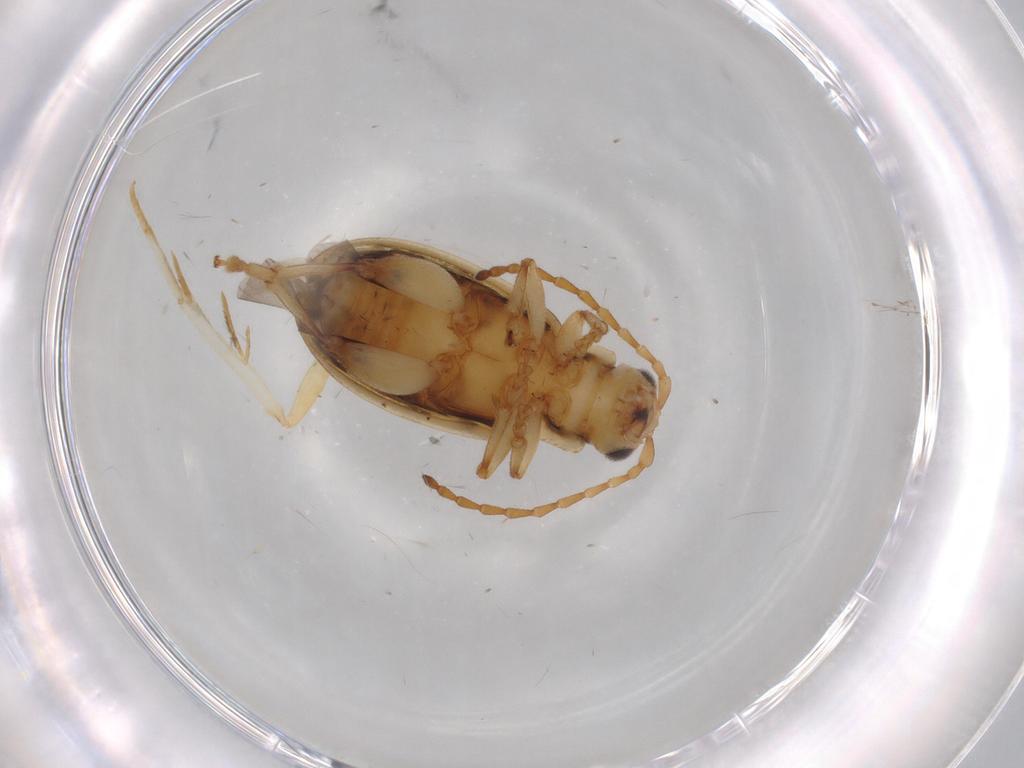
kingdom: Animalia
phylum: Arthropoda
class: Insecta
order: Coleoptera
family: Chrysomelidae
